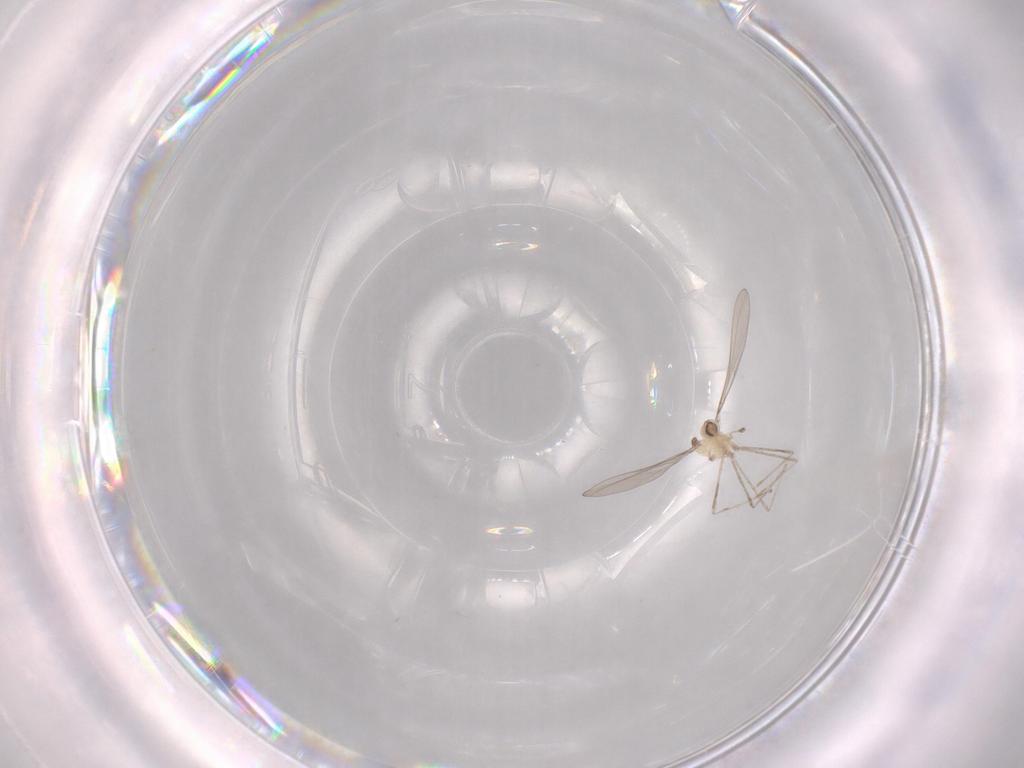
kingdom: Animalia
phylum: Arthropoda
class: Insecta
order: Diptera
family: Cecidomyiidae
